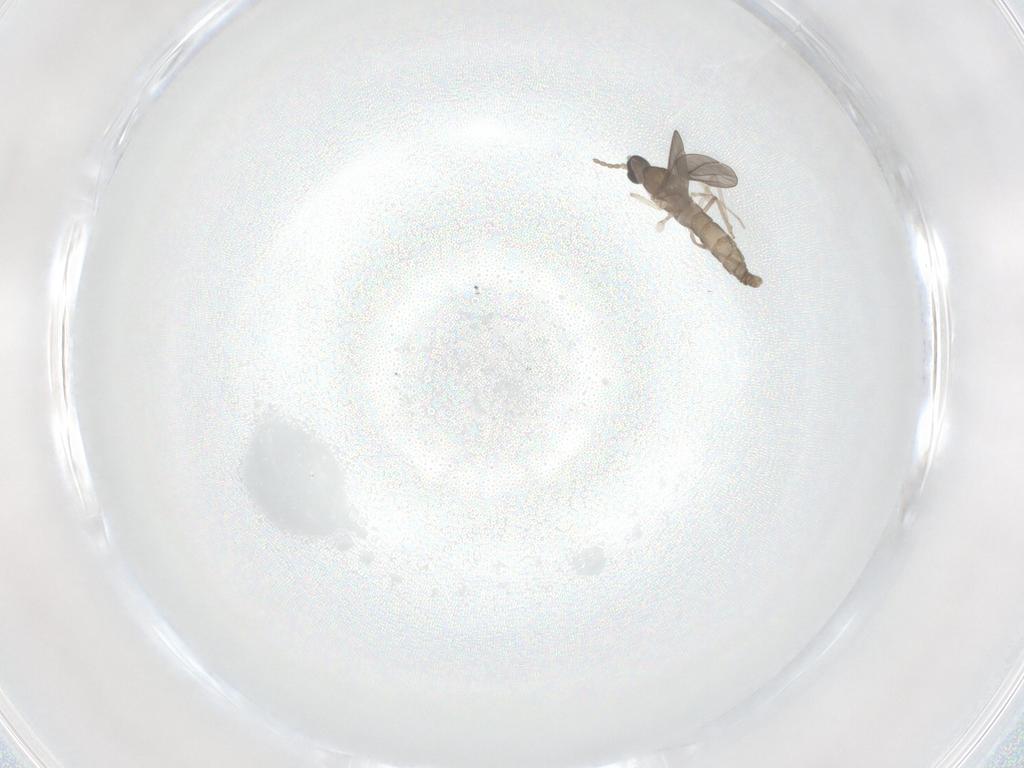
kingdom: Animalia
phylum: Arthropoda
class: Insecta
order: Diptera
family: Cecidomyiidae
